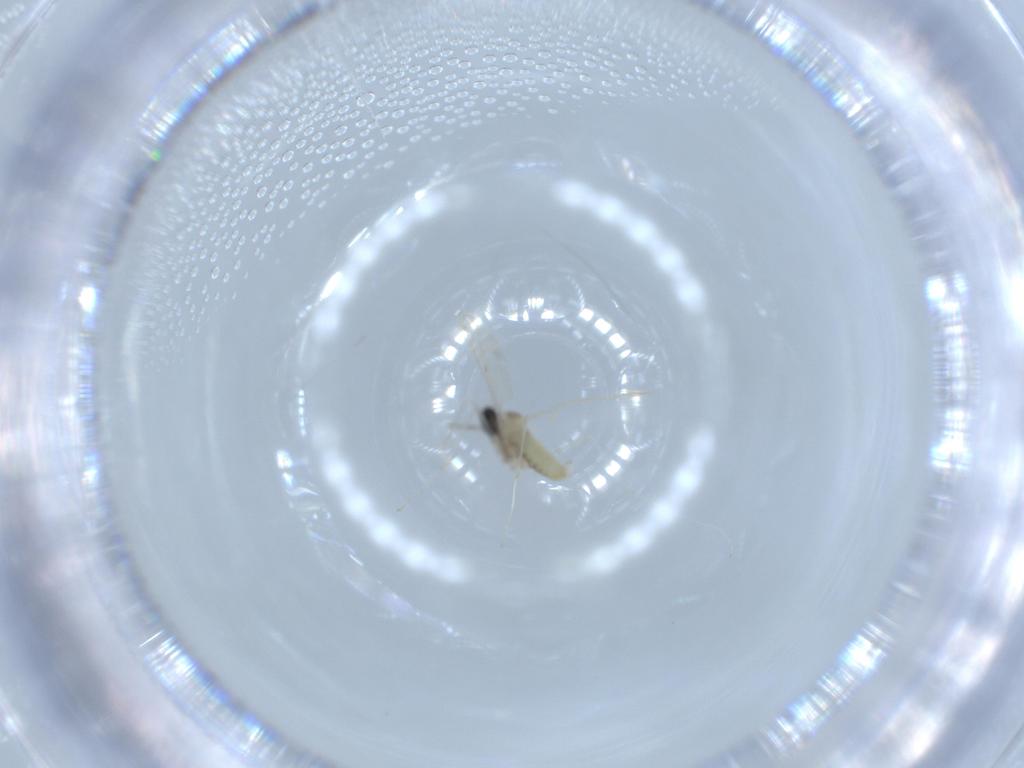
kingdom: Animalia
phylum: Arthropoda
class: Insecta
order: Diptera
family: Cecidomyiidae
